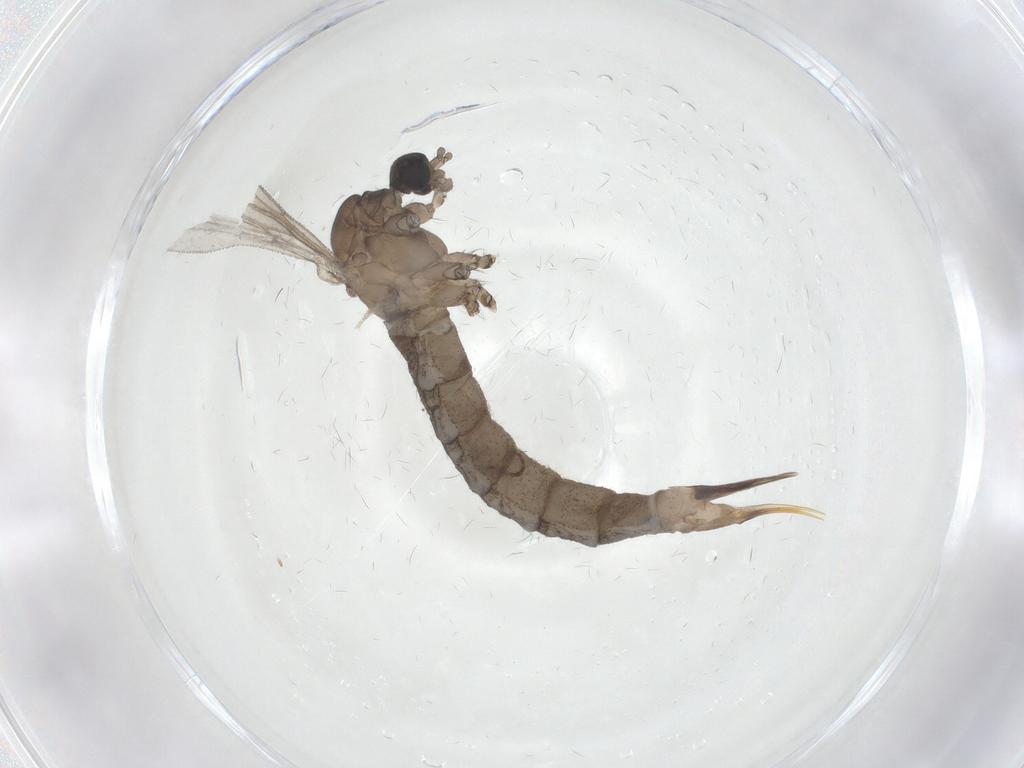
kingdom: Animalia
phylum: Arthropoda
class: Insecta
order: Diptera
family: Limoniidae
